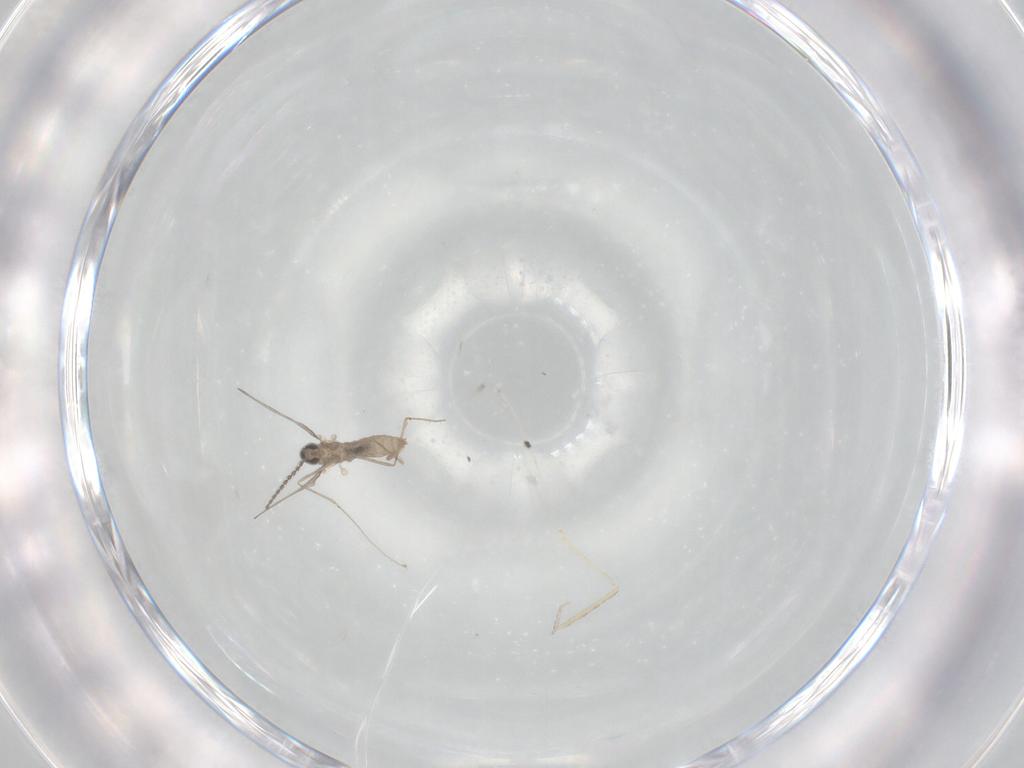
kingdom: Animalia
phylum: Arthropoda
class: Insecta
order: Diptera
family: Cecidomyiidae
